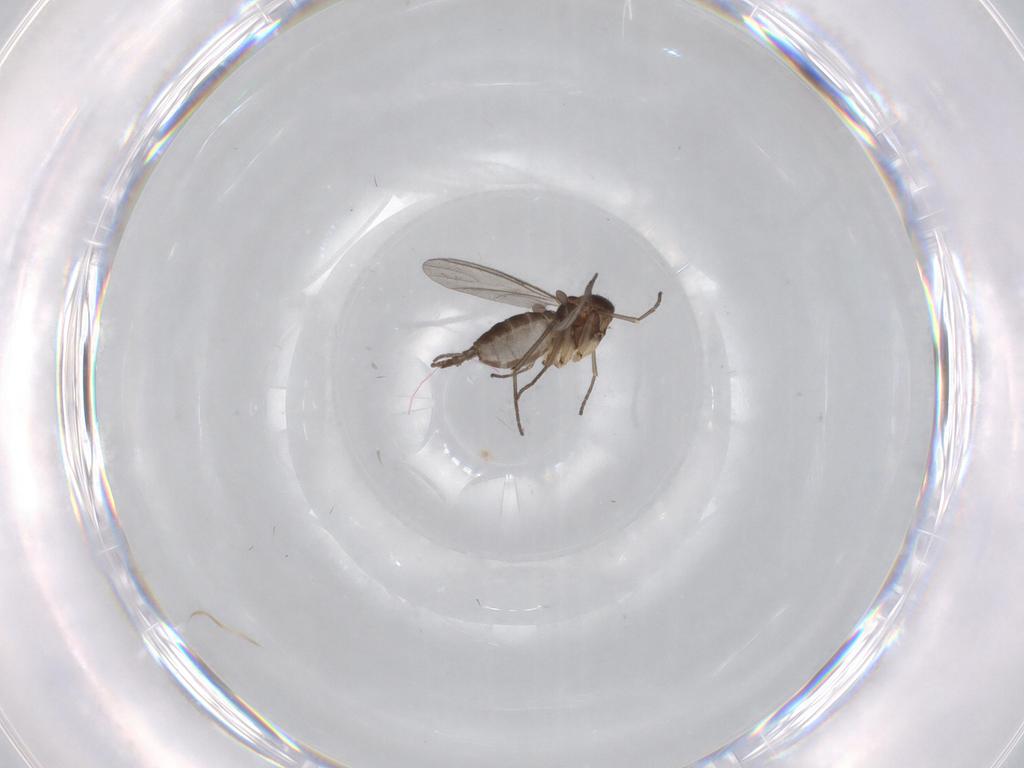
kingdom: Animalia
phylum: Arthropoda
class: Insecta
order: Diptera
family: Sciaridae
